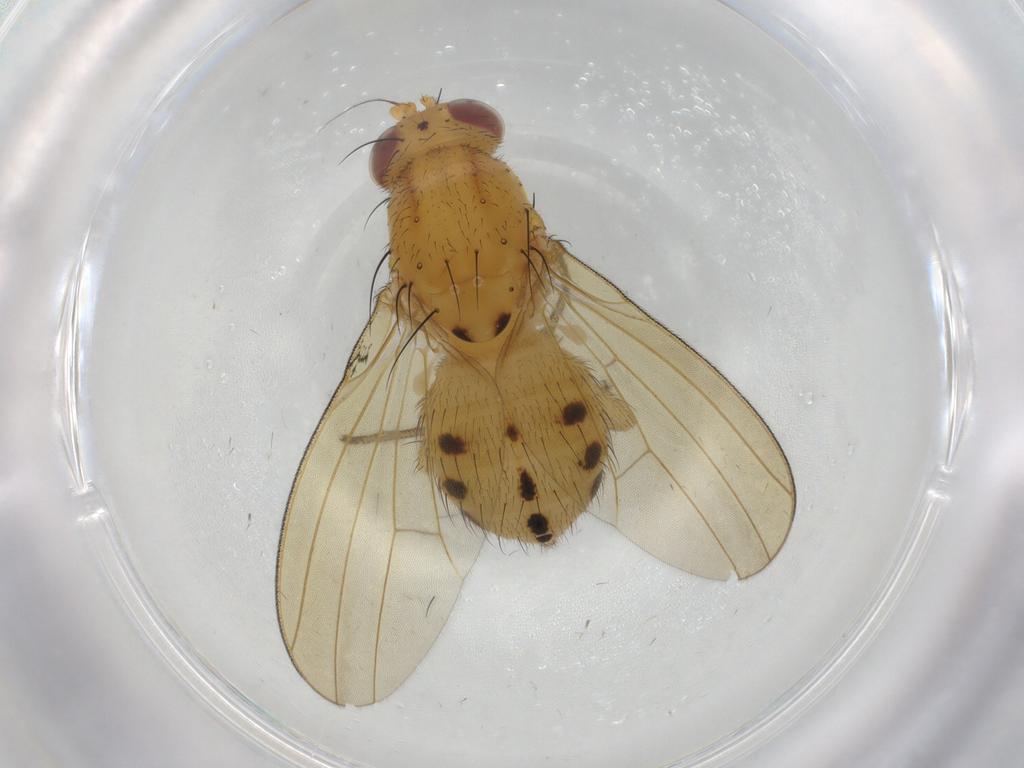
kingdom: Animalia
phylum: Arthropoda
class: Insecta
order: Diptera
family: Lauxaniidae
